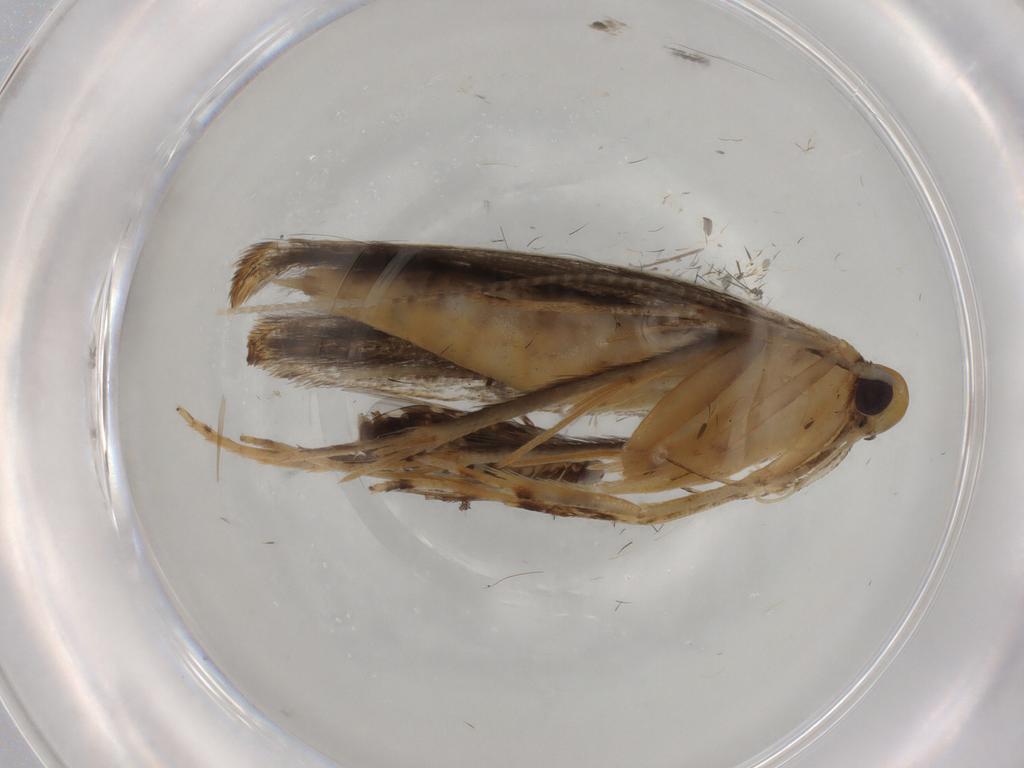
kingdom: Animalia
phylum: Arthropoda
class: Insecta
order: Lepidoptera
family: Pterolonchidae
